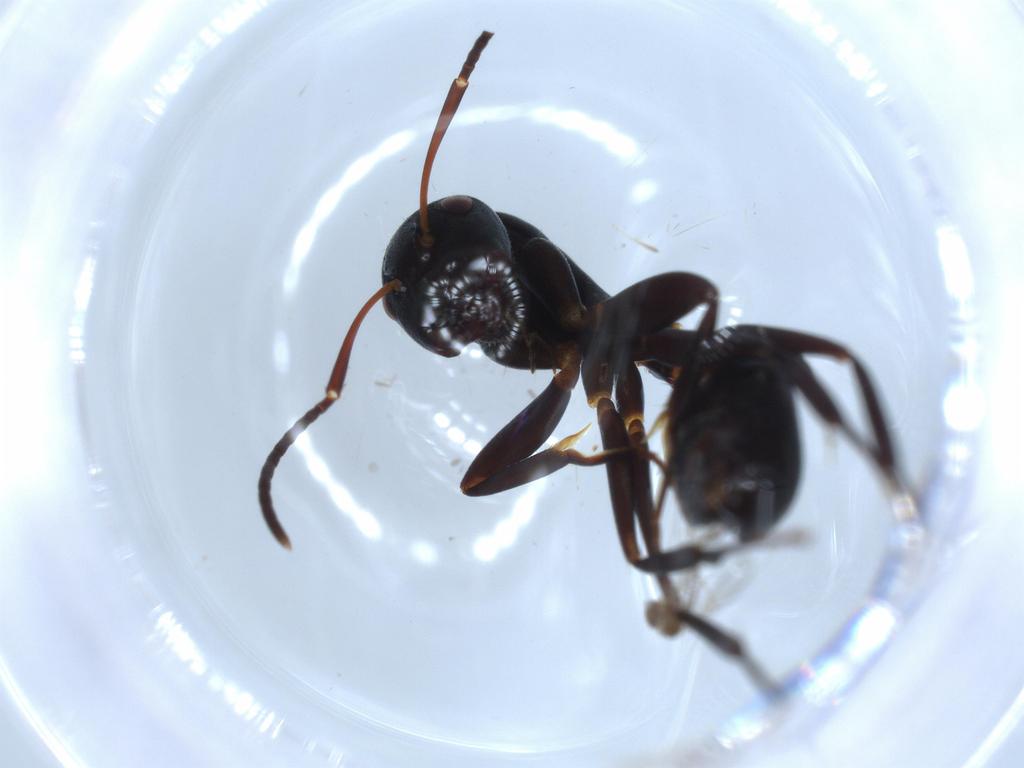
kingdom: Animalia
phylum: Arthropoda
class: Insecta
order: Hymenoptera
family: Formicidae
